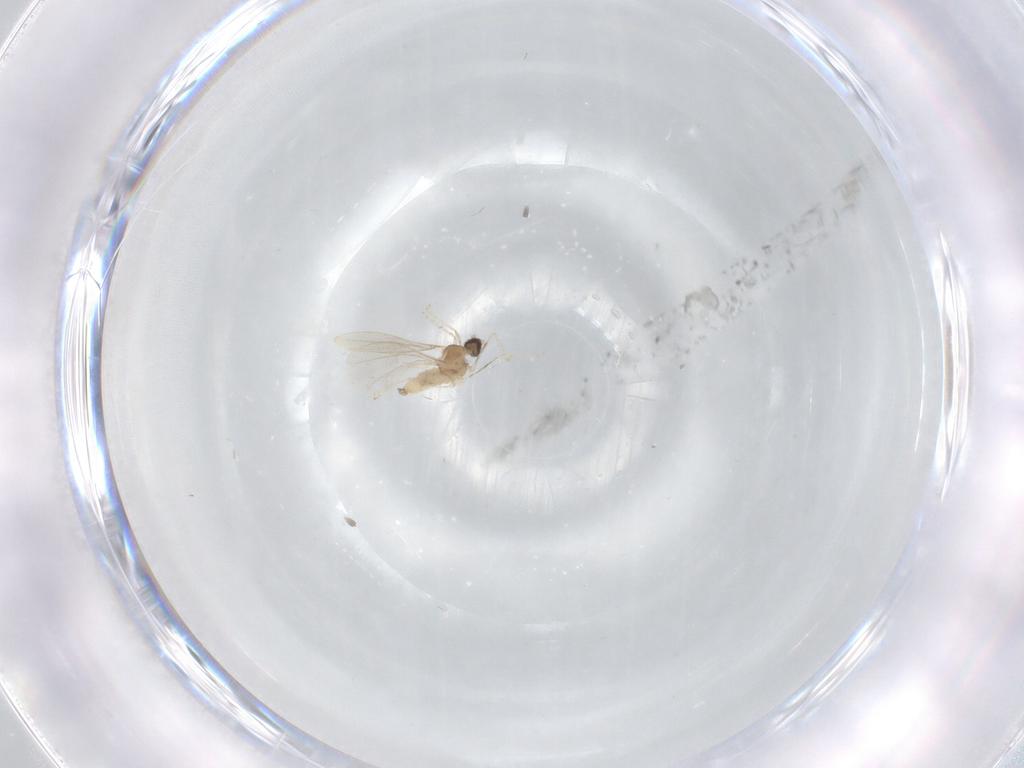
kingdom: Animalia
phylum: Arthropoda
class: Insecta
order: Diptera
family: Cecidomyiidae
